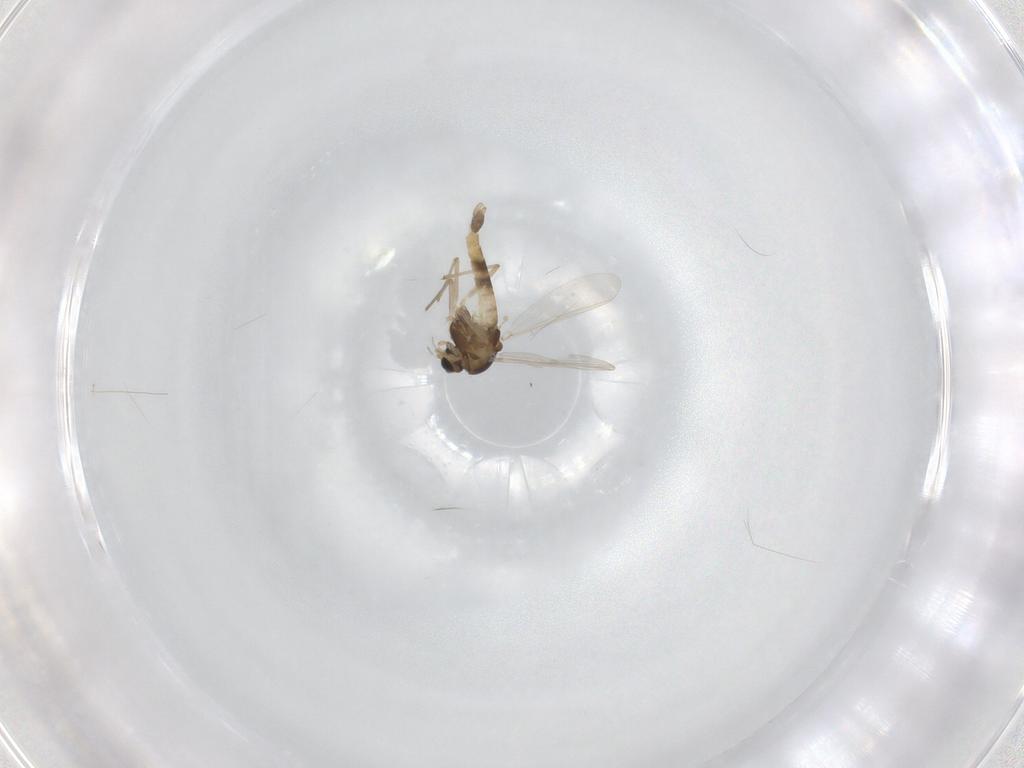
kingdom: Animalia
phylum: Arthropoda
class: Insecta
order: Diptera
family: Chironomidae
